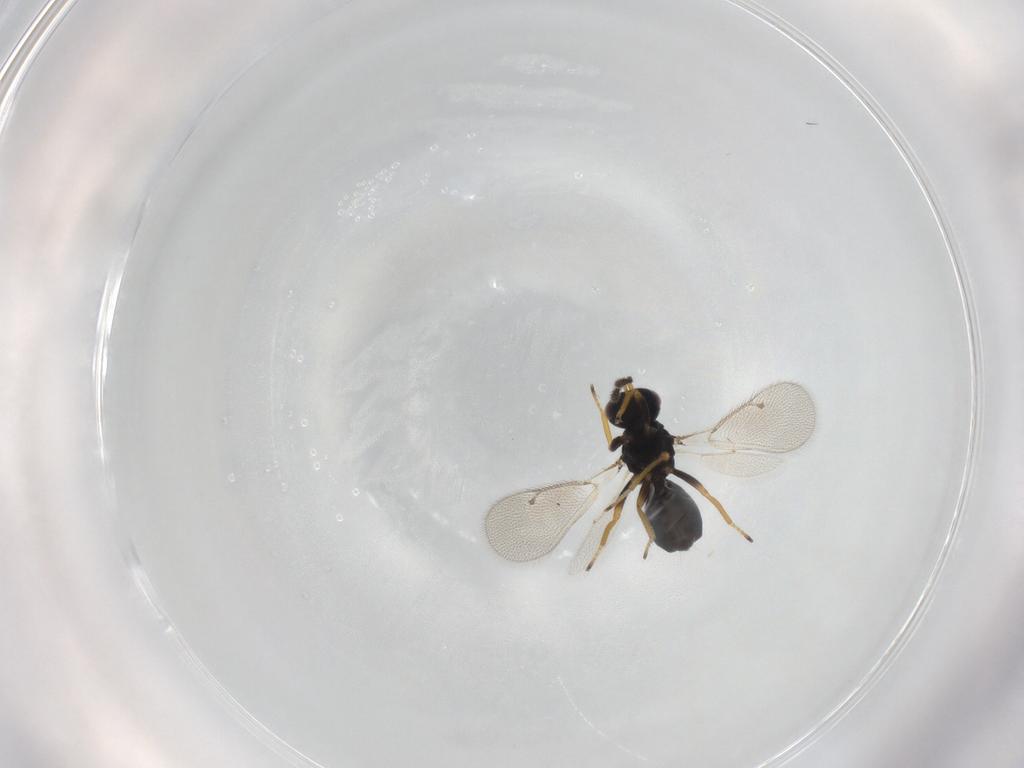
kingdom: Animalia
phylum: Arthropoda
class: Insecta
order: Hymenoptera
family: Eulophidae
